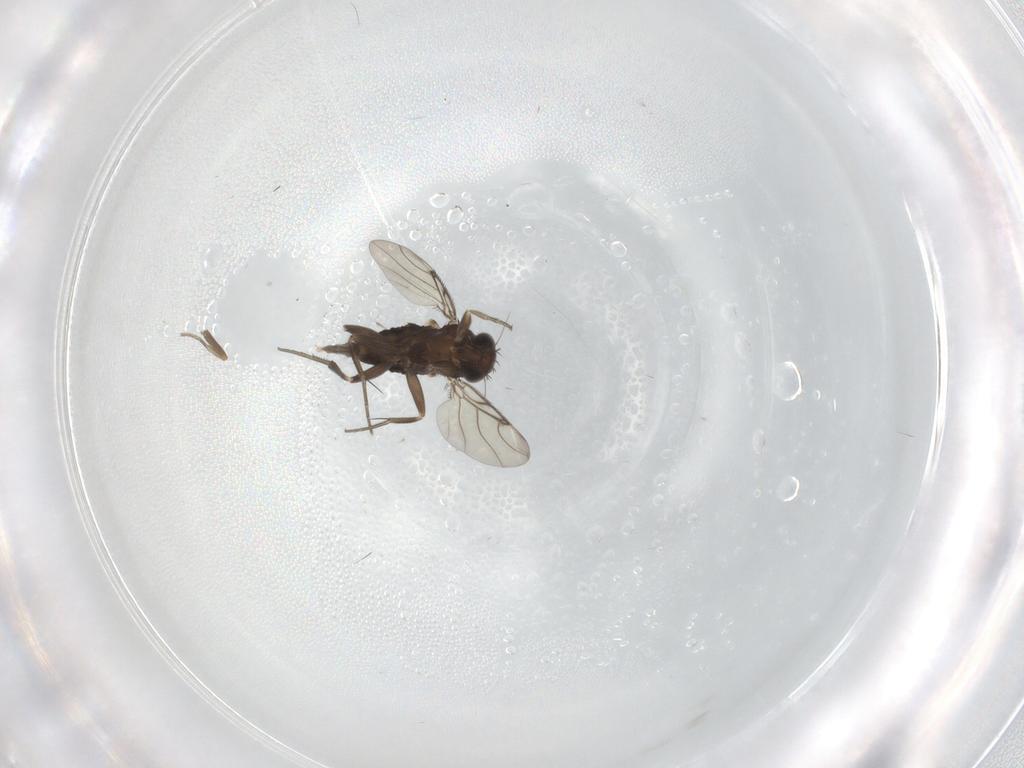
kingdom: Animalia
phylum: Arthropoda
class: Insecta
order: Diptera
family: Phoridae
